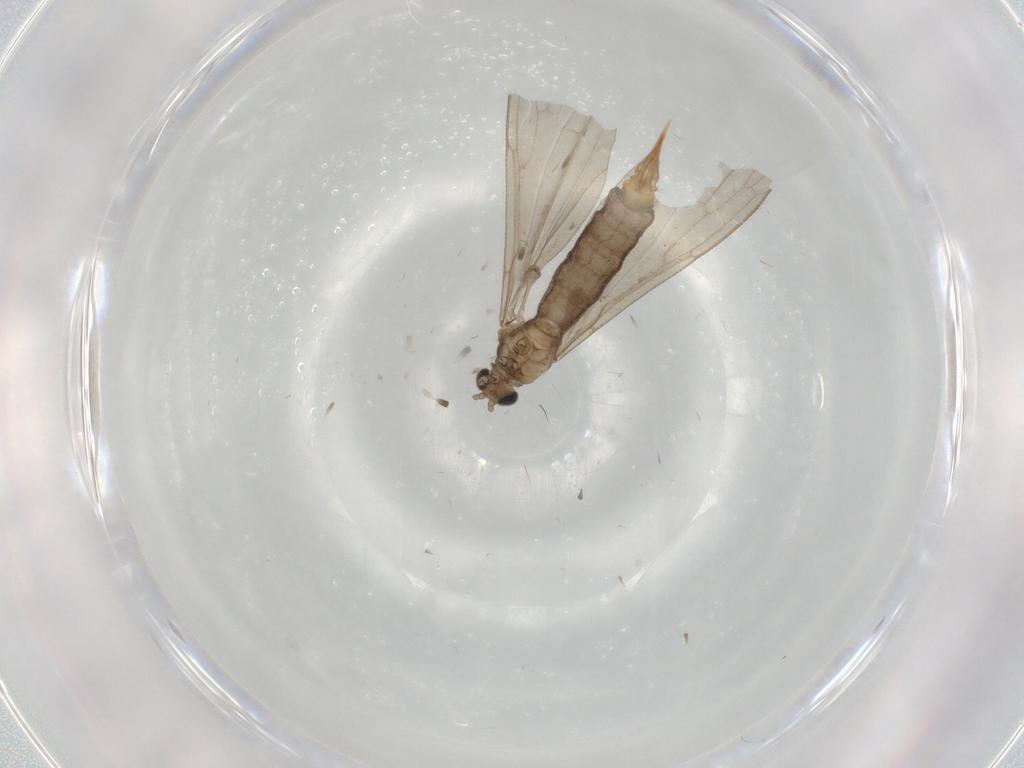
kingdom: Animalia
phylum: Arthropoda
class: Insecta
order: Diptera
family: Limoniidae
